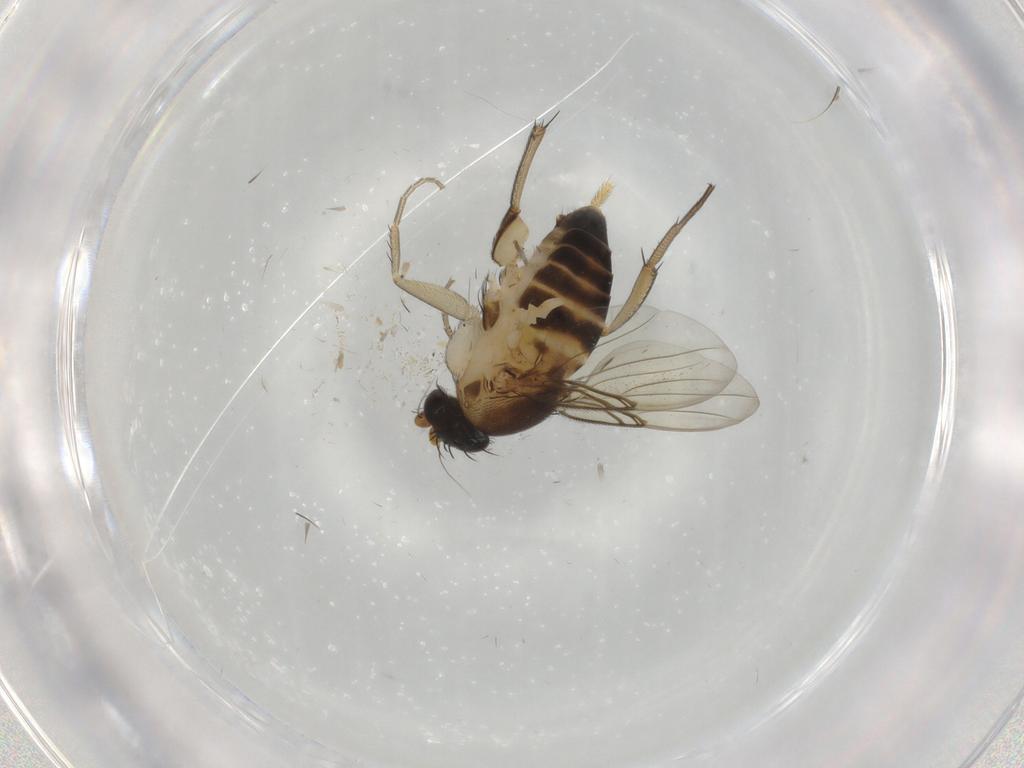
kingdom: Animalia
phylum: Arthropoda
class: Insecta
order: Diptera
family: Phoridae
